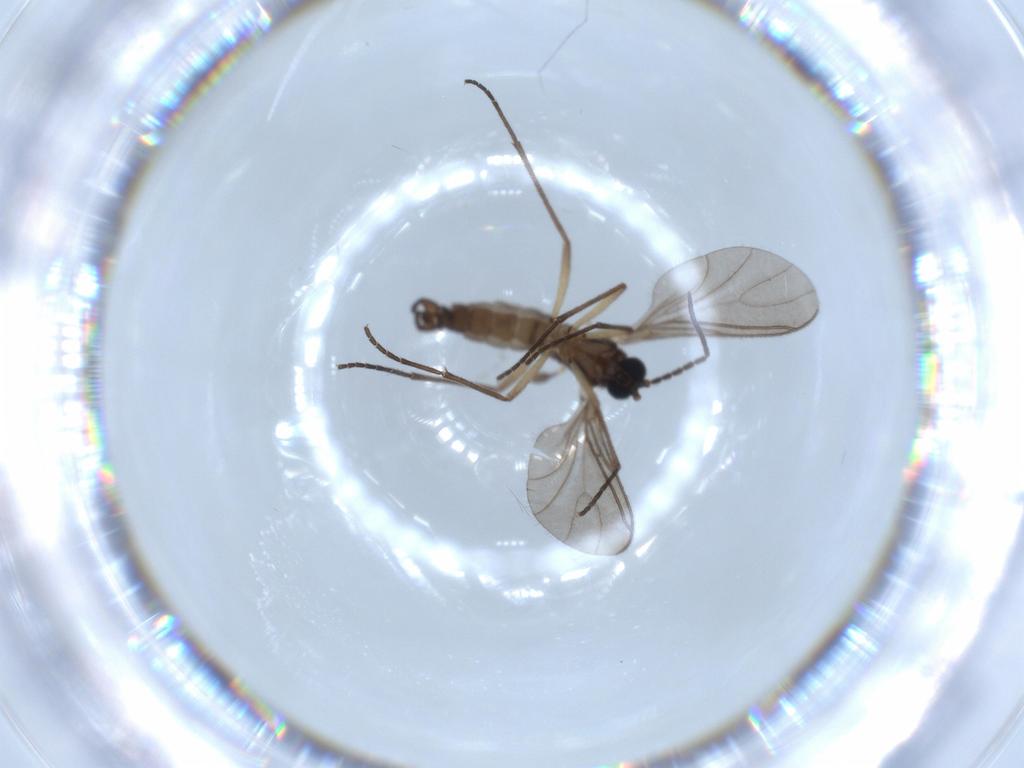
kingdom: Animalia
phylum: Arthropoda
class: Insecta
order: Diptera
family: Sciaridae
